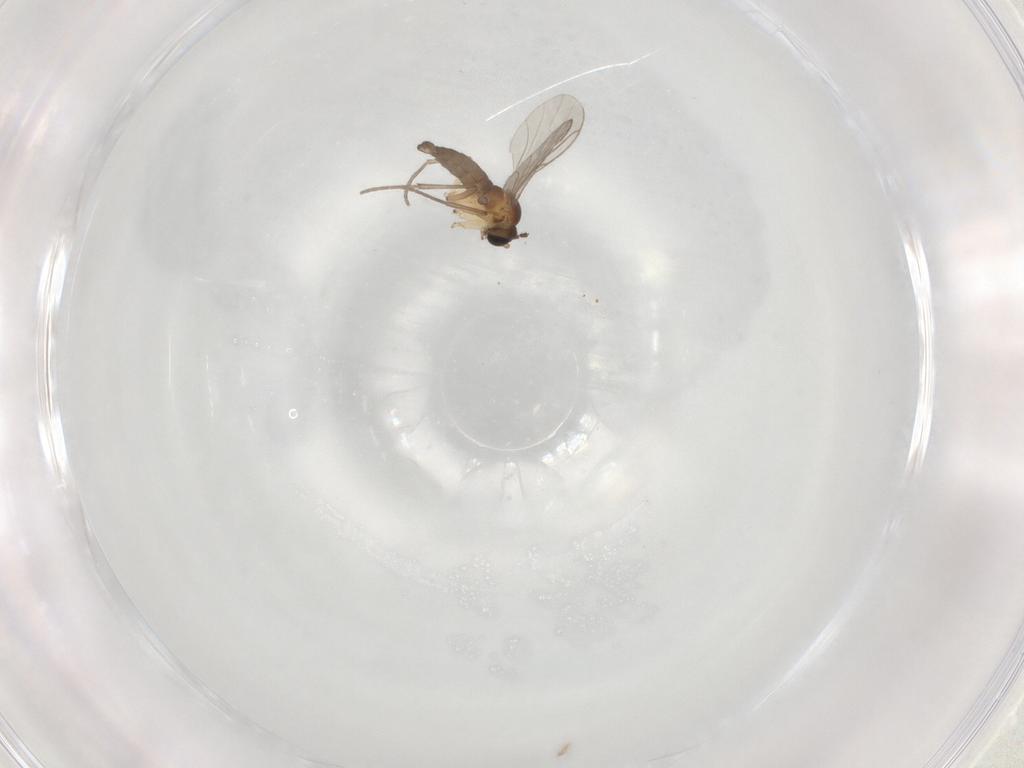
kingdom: Animalia
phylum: Arthropoda
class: Insecta
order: Diptera
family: Sciaridae
